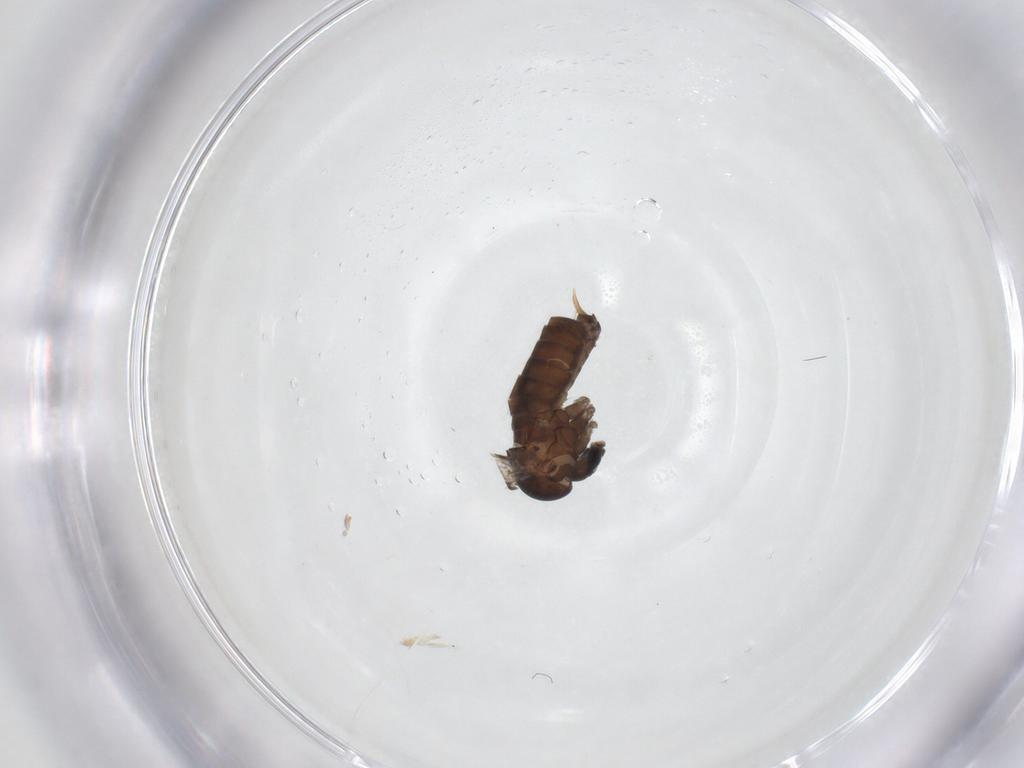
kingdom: Animalia
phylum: Arthropoda
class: Insecta
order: Diptera
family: Psychodidae
